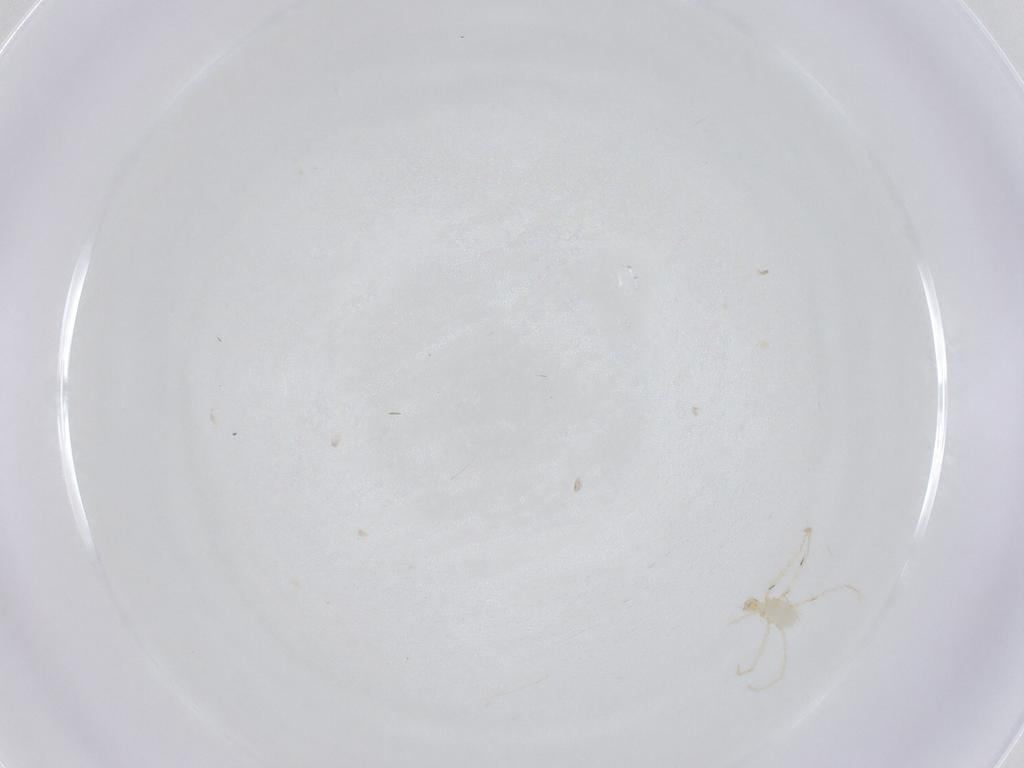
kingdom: Animalia
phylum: Arthropoda
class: Arachnida
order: Trombidiformes
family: Erythraeidae
